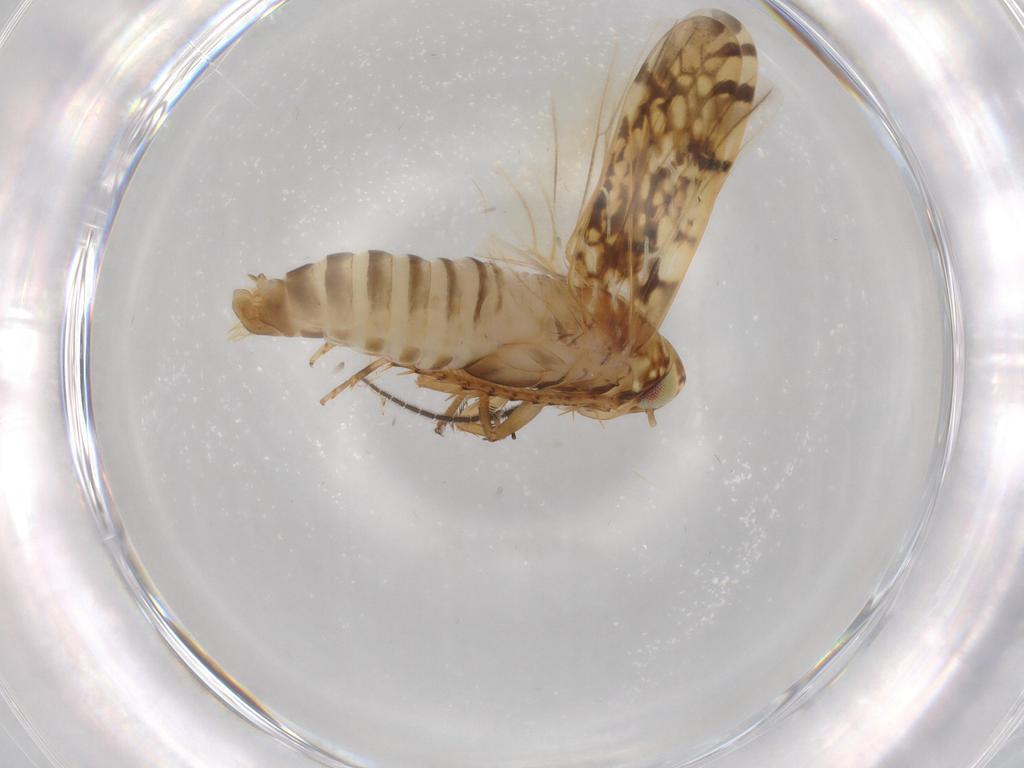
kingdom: Animalia
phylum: Arthropoda
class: Insecta
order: Hemiptera
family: Cicadellidae
